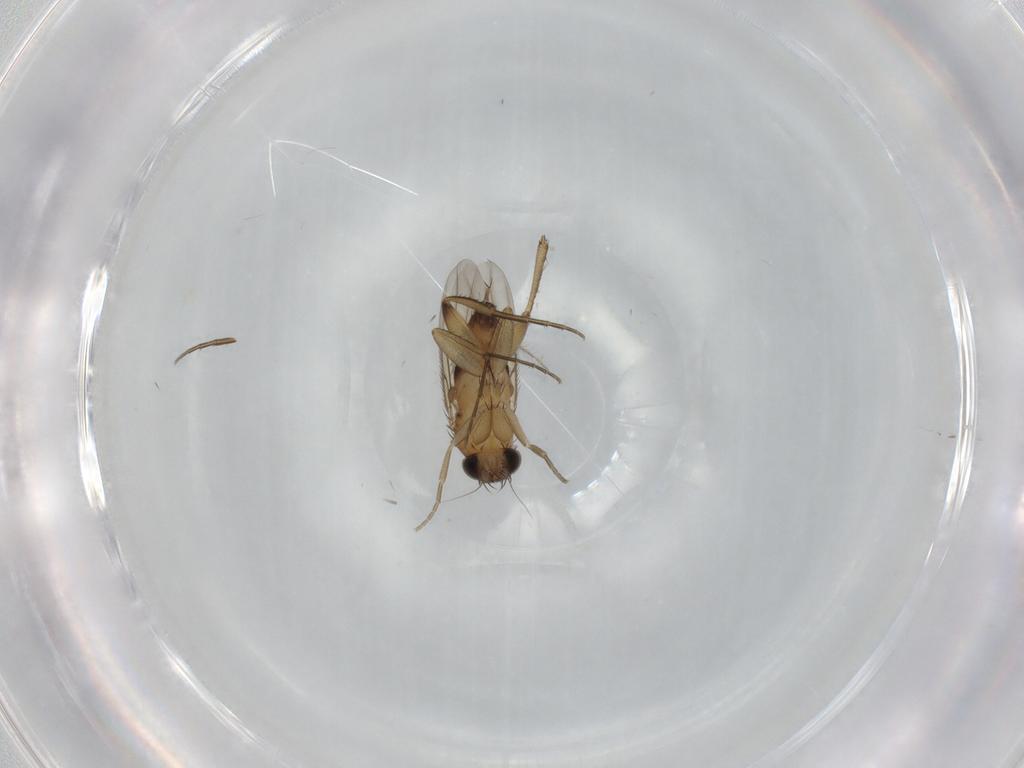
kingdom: Animalia
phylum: Arthropoda
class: Insecta
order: Diptera
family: Phoridae
